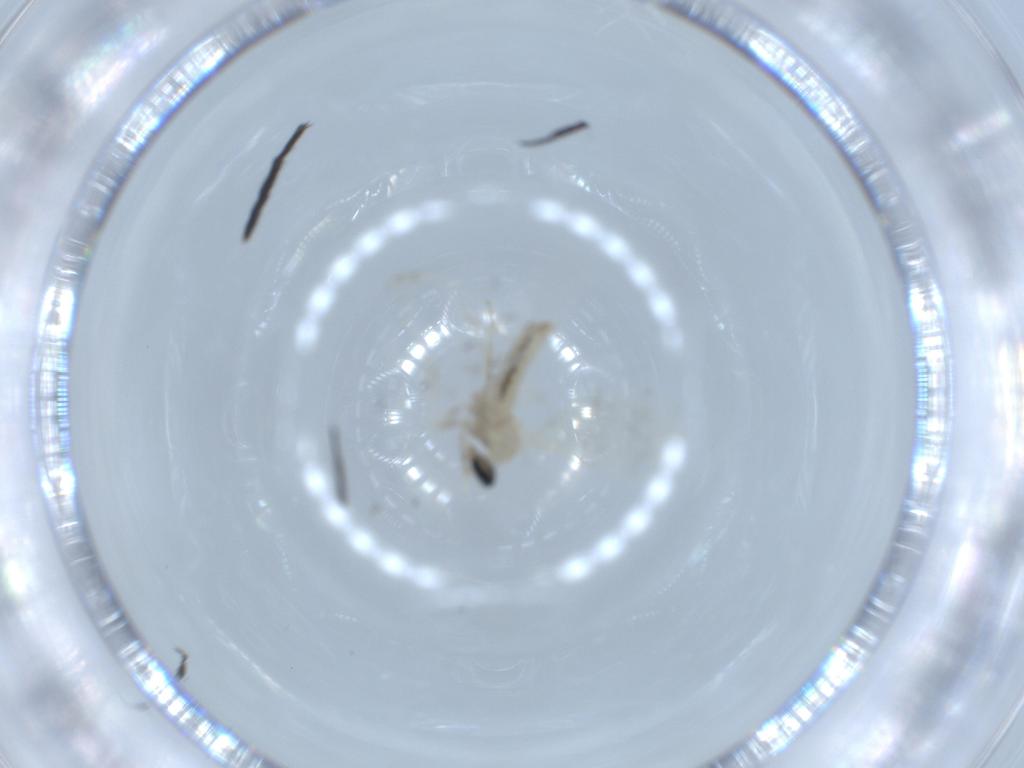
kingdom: Animalia
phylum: Arthropoda
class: Insecta
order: Diptera
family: Cecidomyiidae
